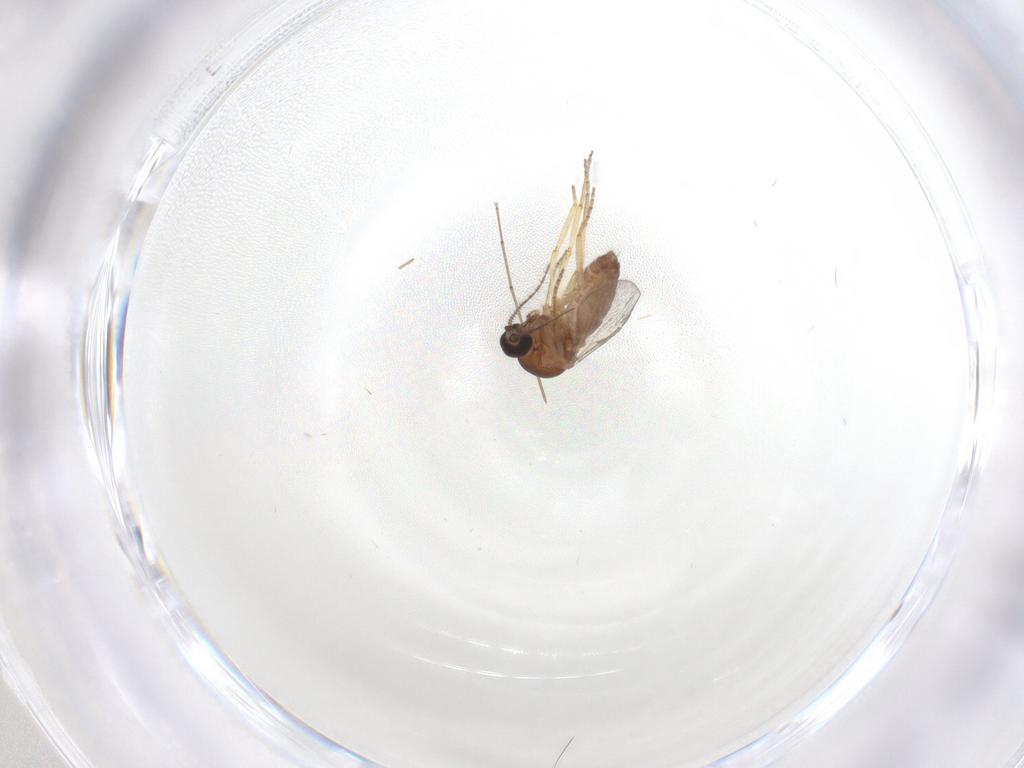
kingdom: Animalia
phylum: Arthropoda
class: Insecta
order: Diptera
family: Ceratopogonidae
